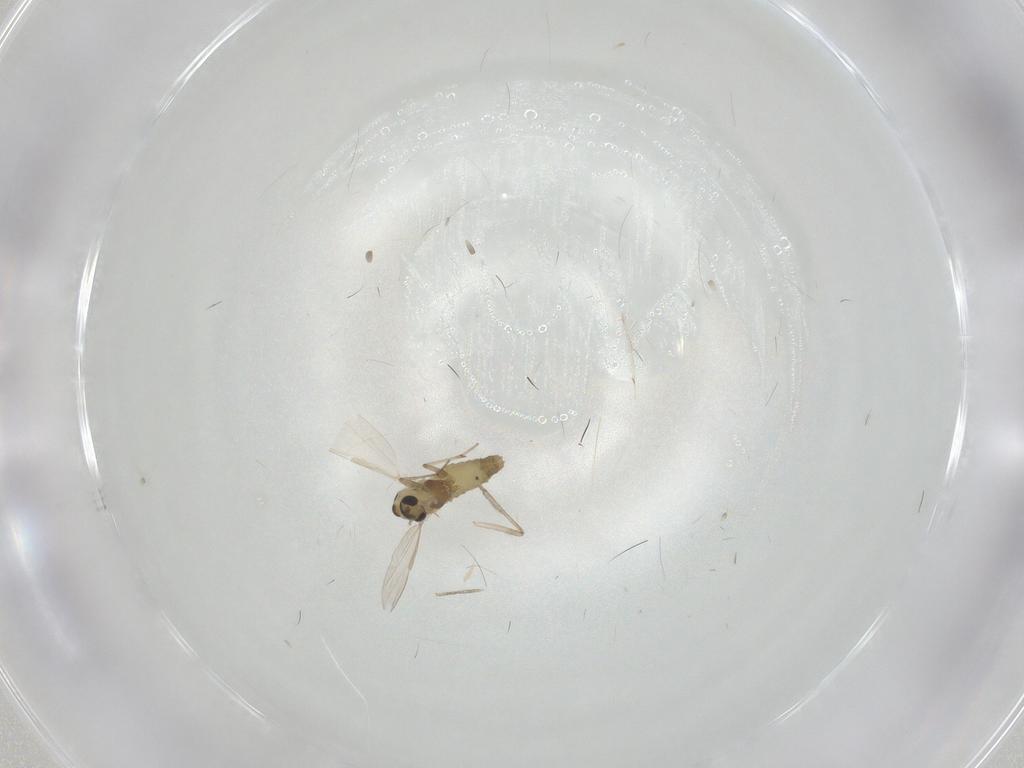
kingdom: Animalia
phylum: Arthropoda
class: Insecta
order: Diptera
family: Chironomidae
